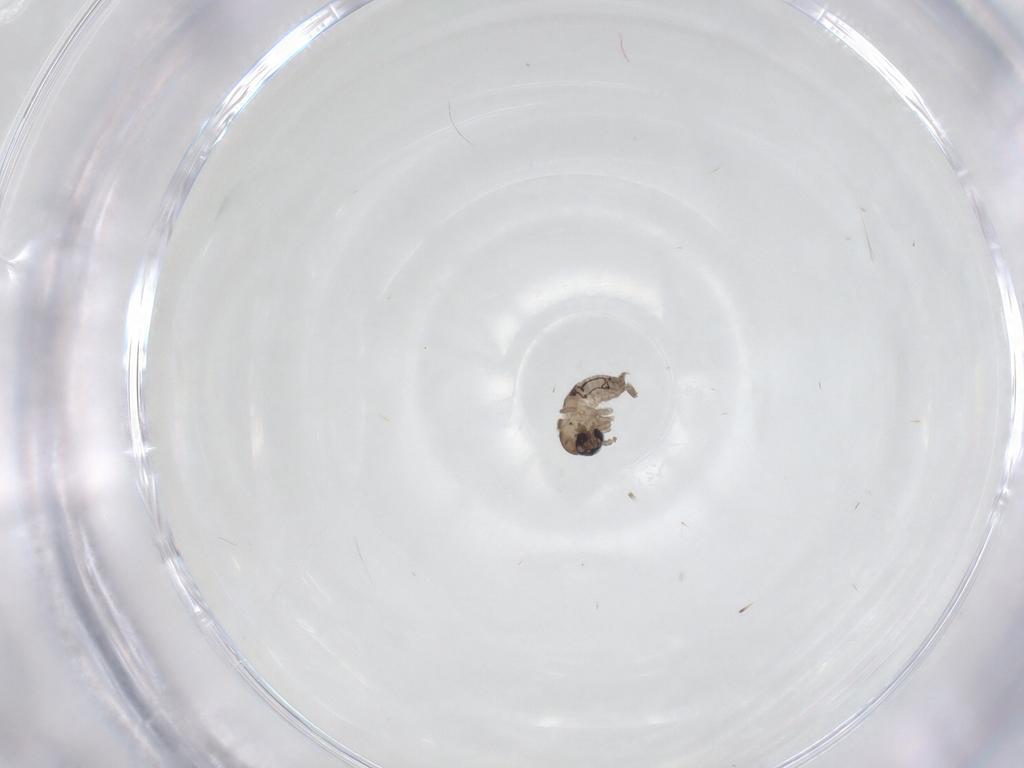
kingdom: Animalia
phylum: Arthropoda
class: Insecta
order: Diptera
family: Psychodidae
